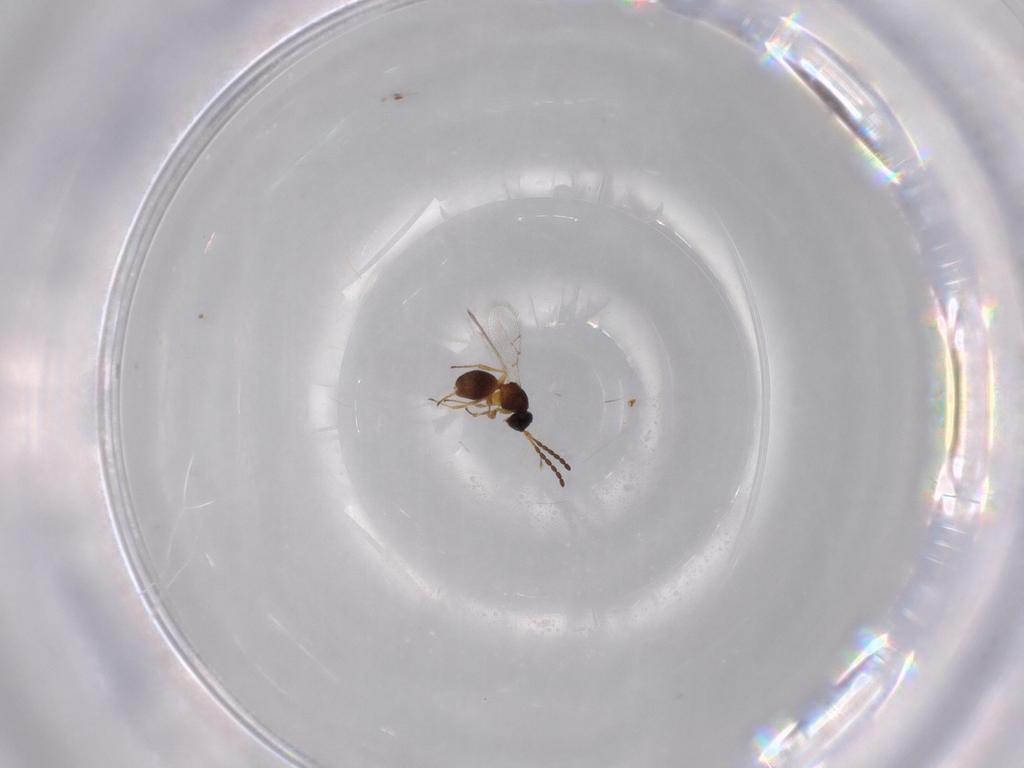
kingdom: Animalia
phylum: Arthropoda
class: Insecta
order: Hymenoptera
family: Figitidae
